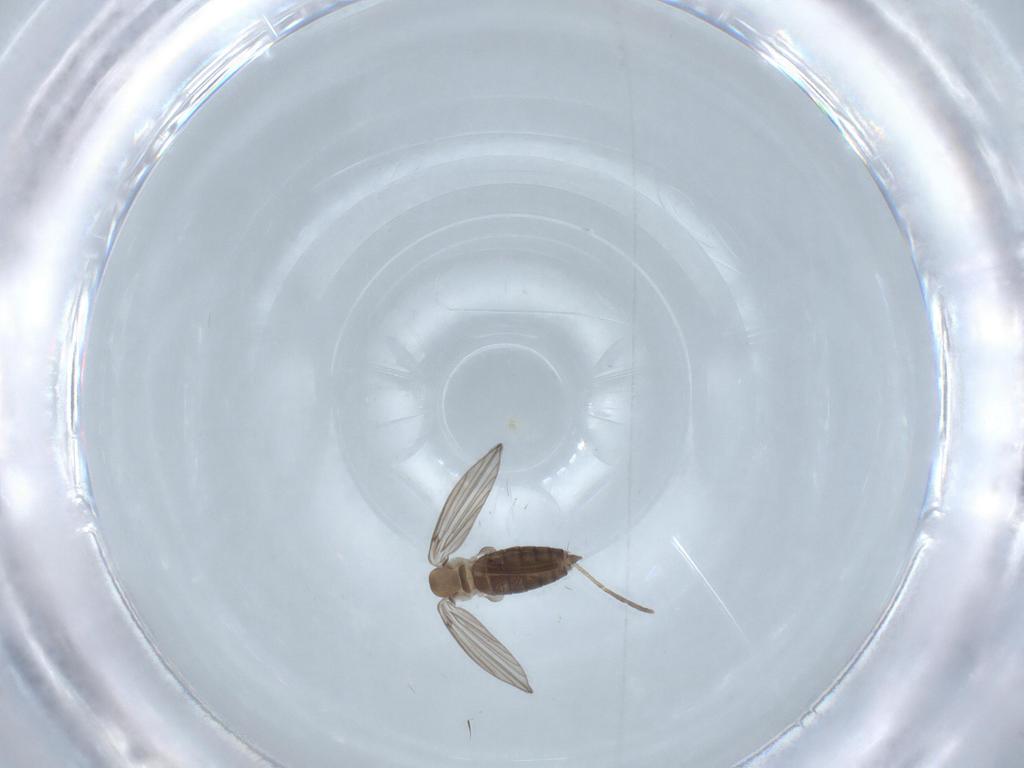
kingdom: Animalia
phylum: Arthropoda
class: Insecta
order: Diptera
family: Psychodidae
